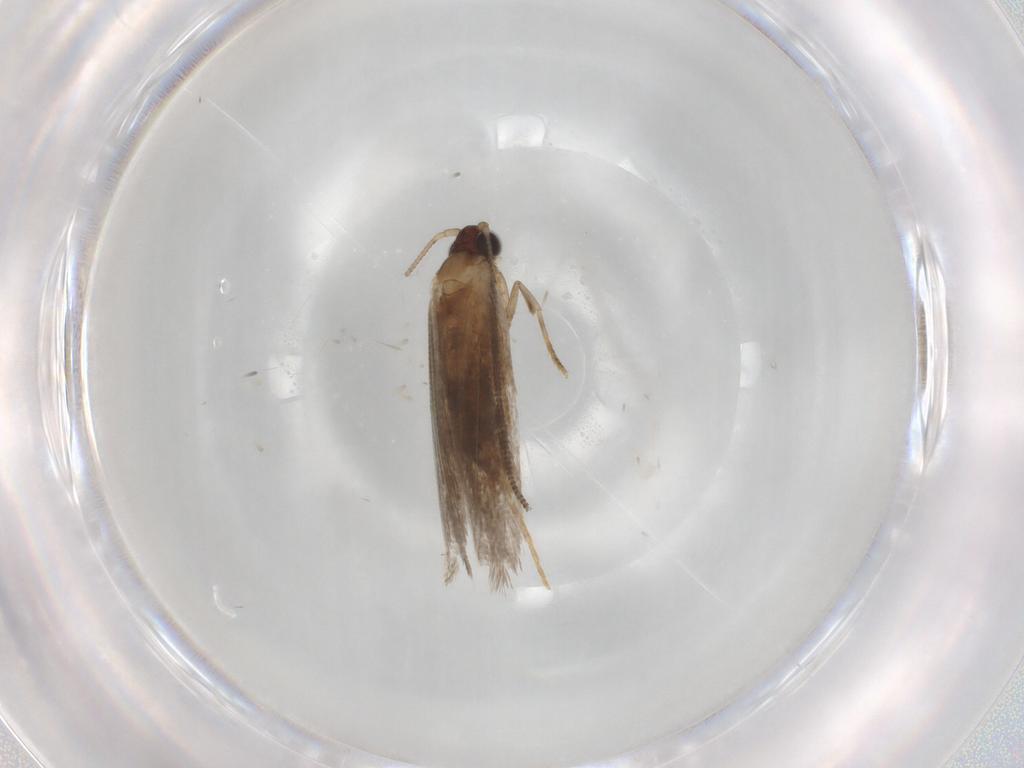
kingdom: Animalia
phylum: Arthropoda
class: Insecta
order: Lepidoptera
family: Tineidae
